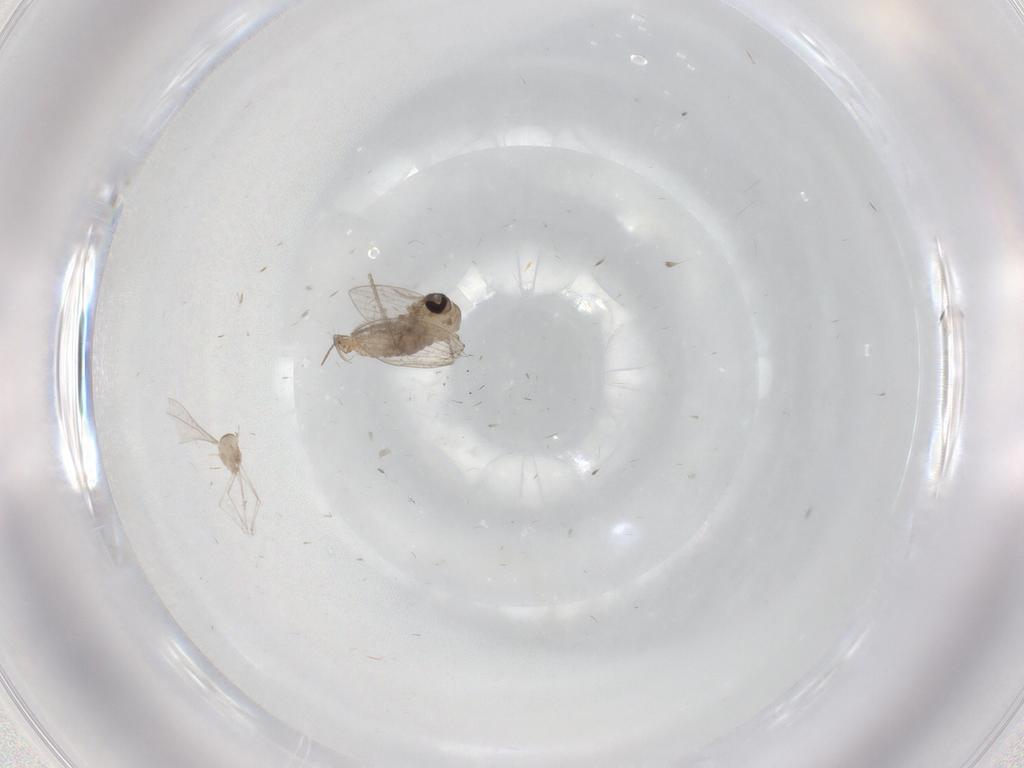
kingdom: Animalia
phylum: Arthropoda
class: Insecta
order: Diptera
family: Psychodidae
